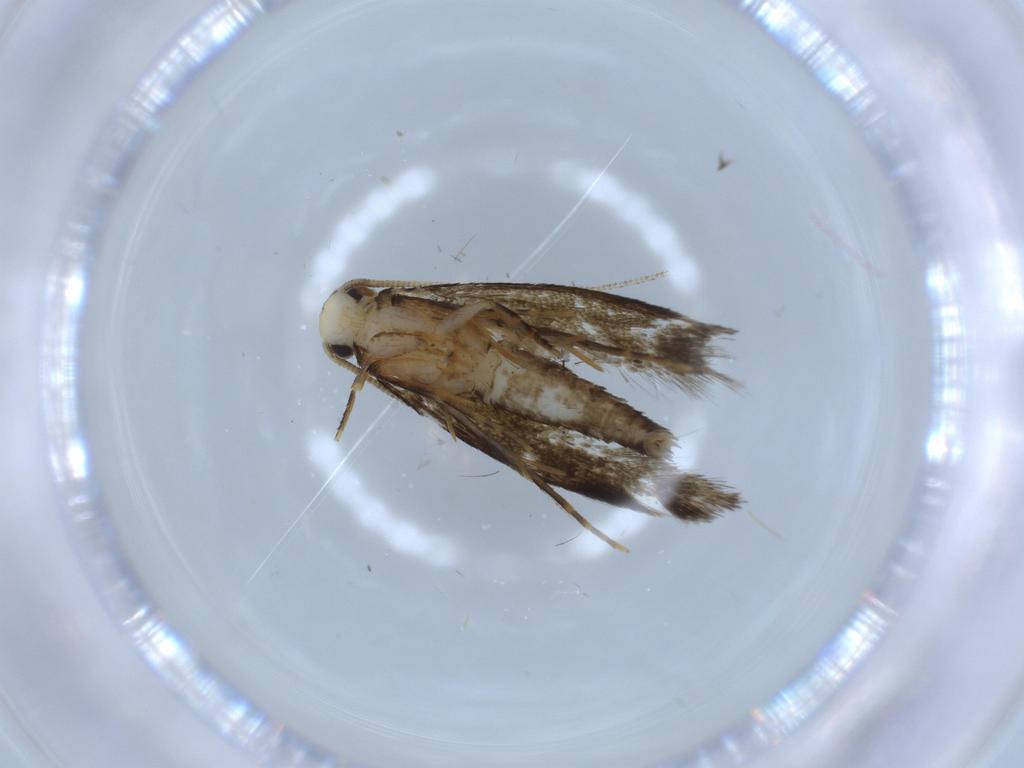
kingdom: Animalia
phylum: Arthropoda
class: Insecta
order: Lepidoptera
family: Tineidae
